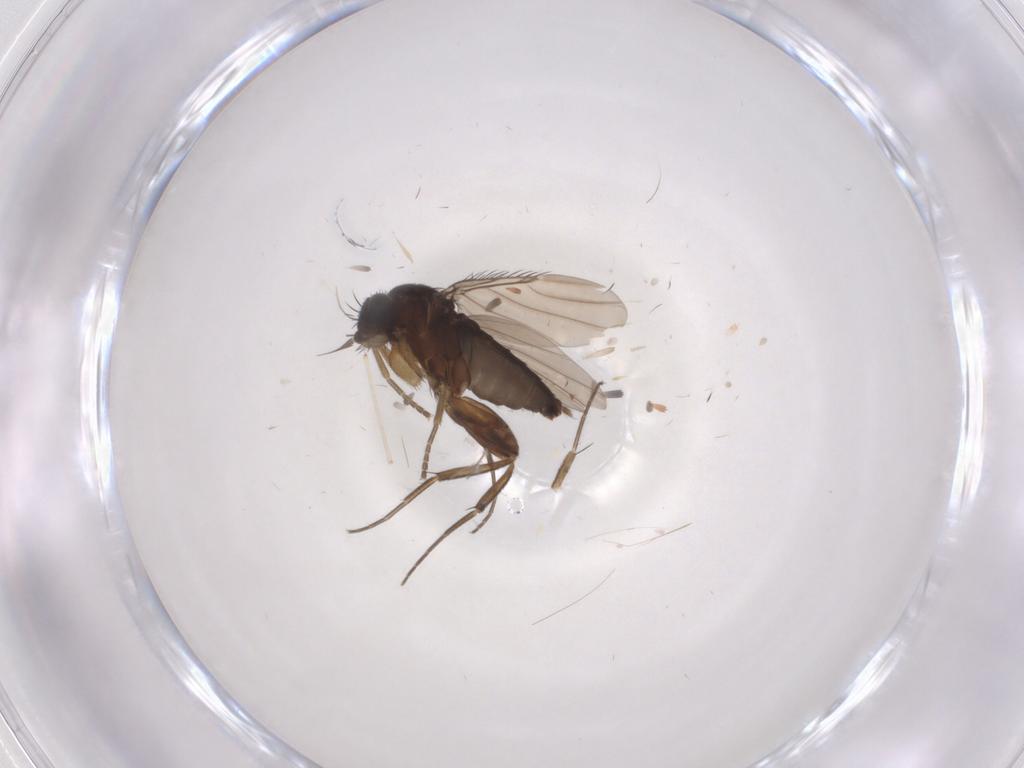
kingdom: Animalia
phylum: Arthropoda
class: Insecta
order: Diptera
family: Phoridae
